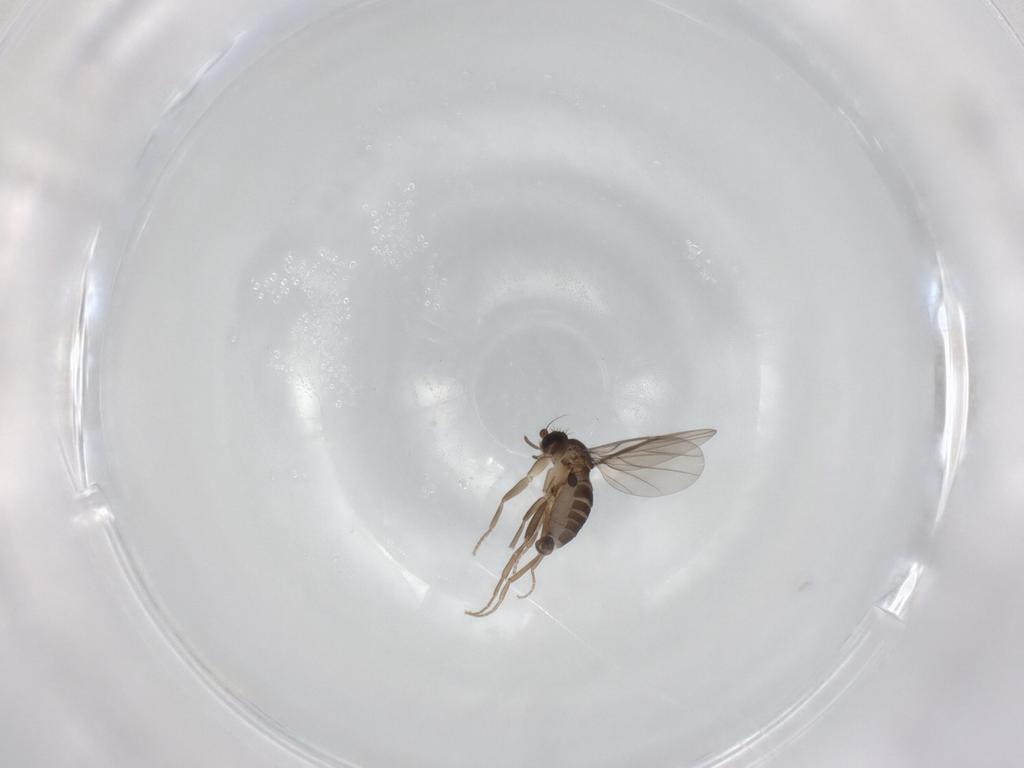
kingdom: Animalia
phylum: Arthropoda
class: Insecta
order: Diptera
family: Phoridae
